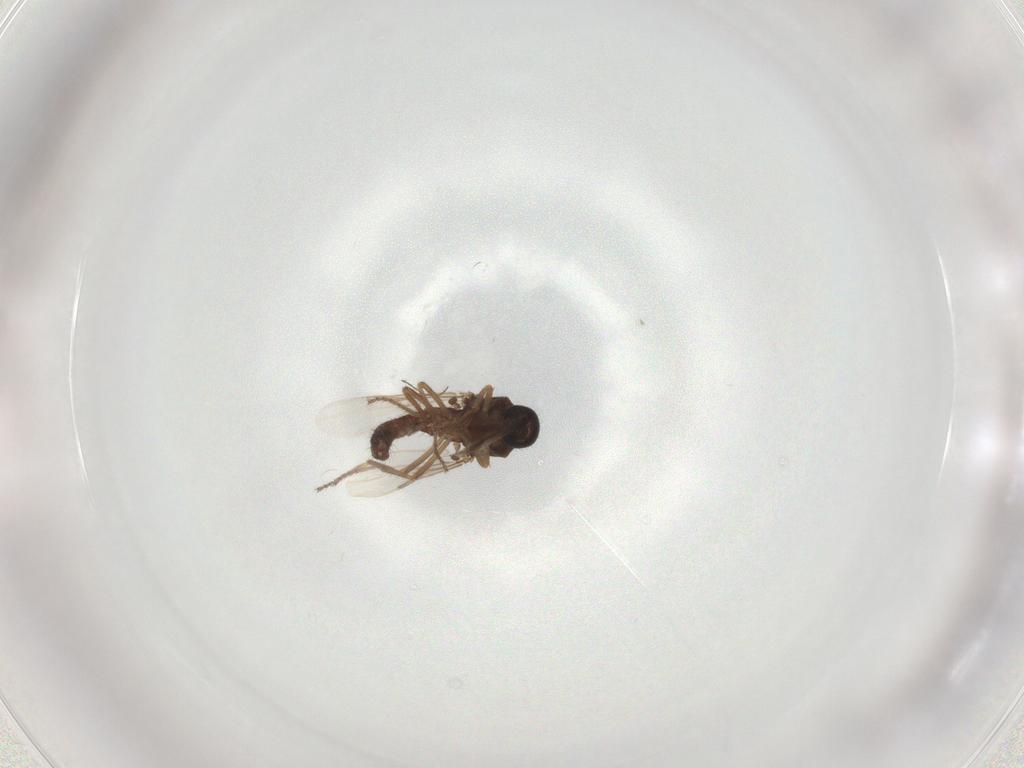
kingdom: Animalia
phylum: Arthropoda
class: Insecta
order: Diptera
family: Ceratopogonidae
